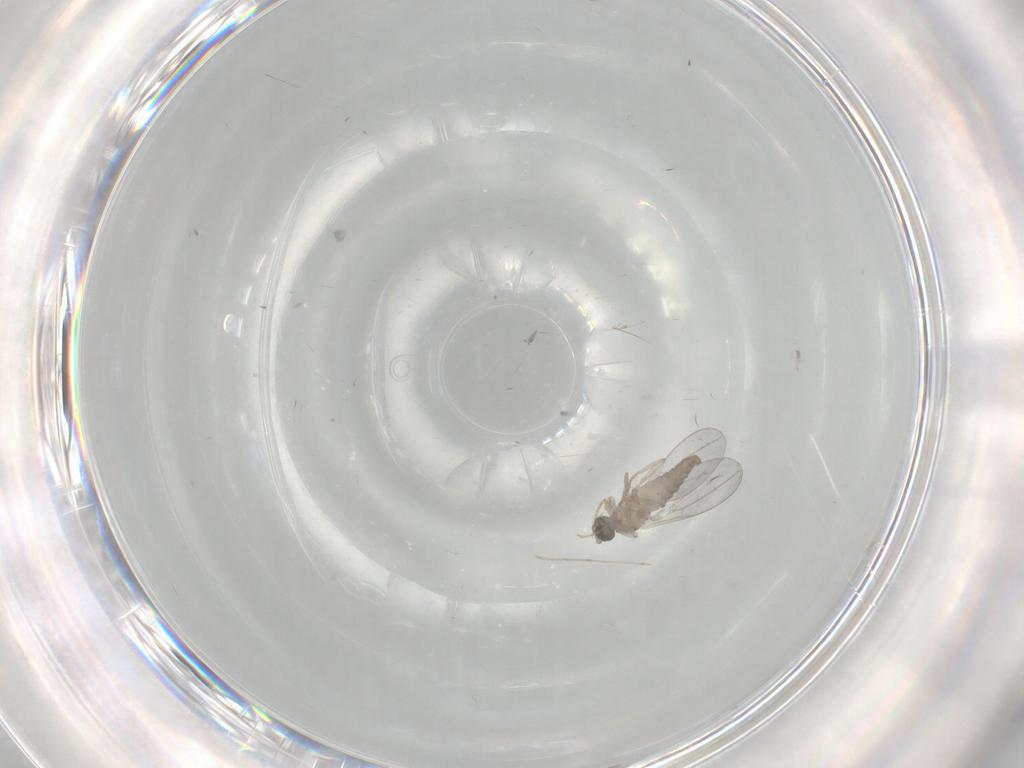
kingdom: Animalia
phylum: Arthropoda
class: Insecta
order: Diptera
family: Cecidomyiidae
